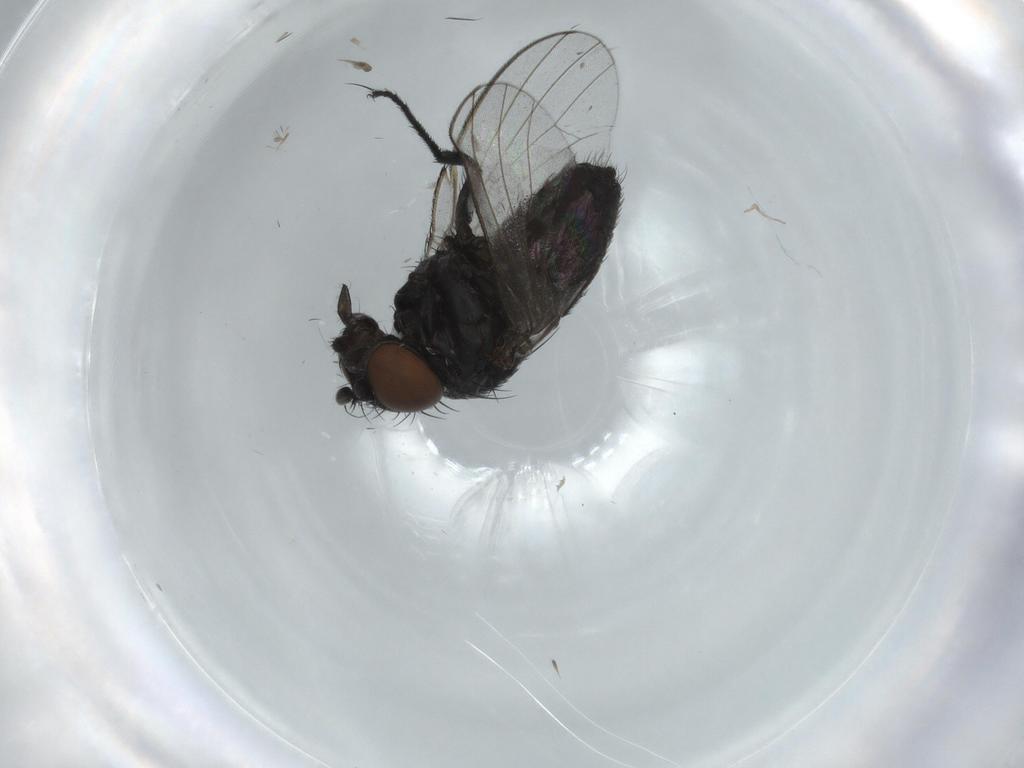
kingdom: Animalia
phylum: Arthropoda
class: Insecta
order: Diptera
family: Milichiidae
